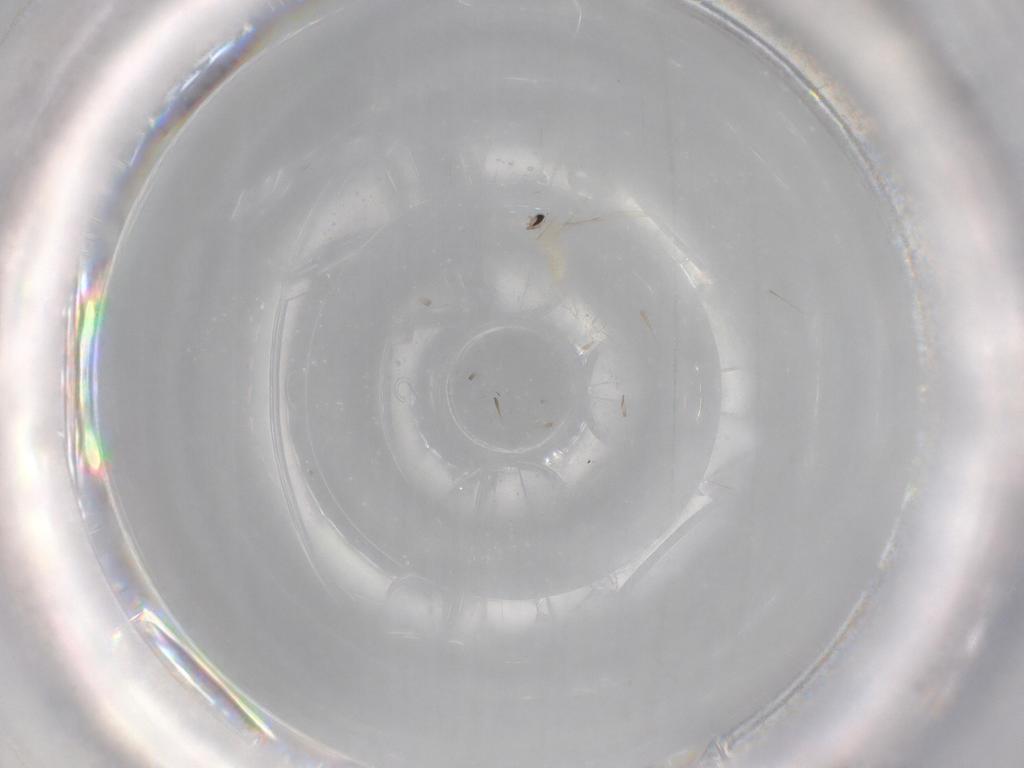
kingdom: Animalia
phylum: Arthropoda
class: Insecta
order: Diptera
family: Cecidomyiidae
